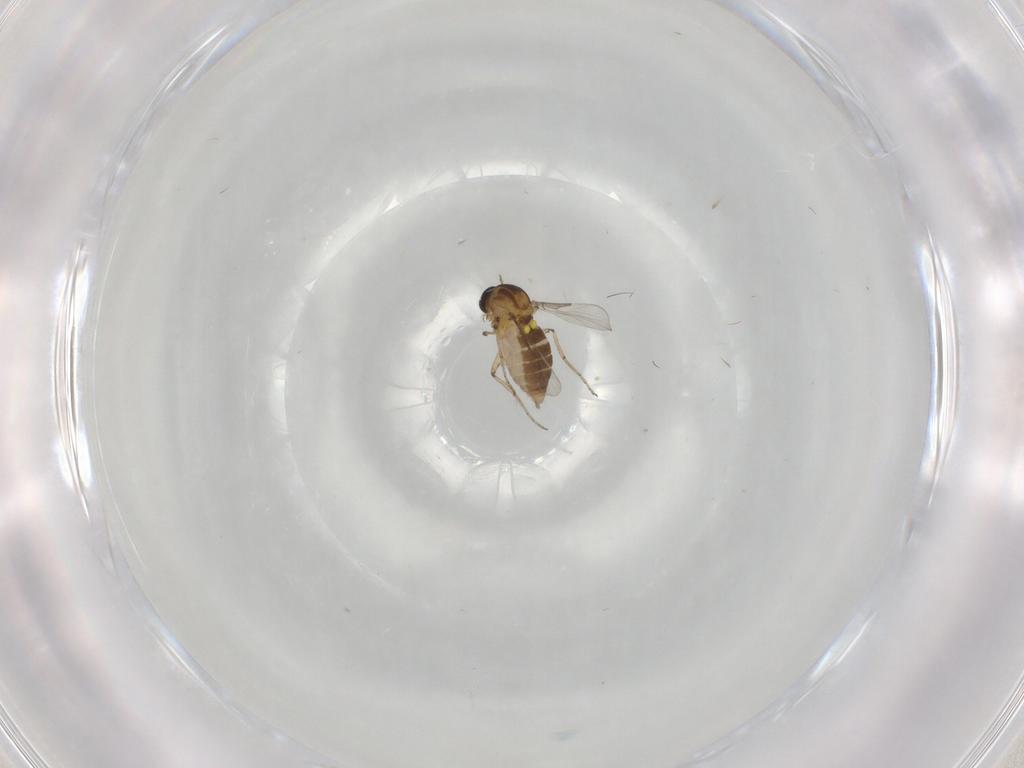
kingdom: Animalia
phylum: Arthropoda
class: Insecta
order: Diptera
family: Ceratopogonidae
